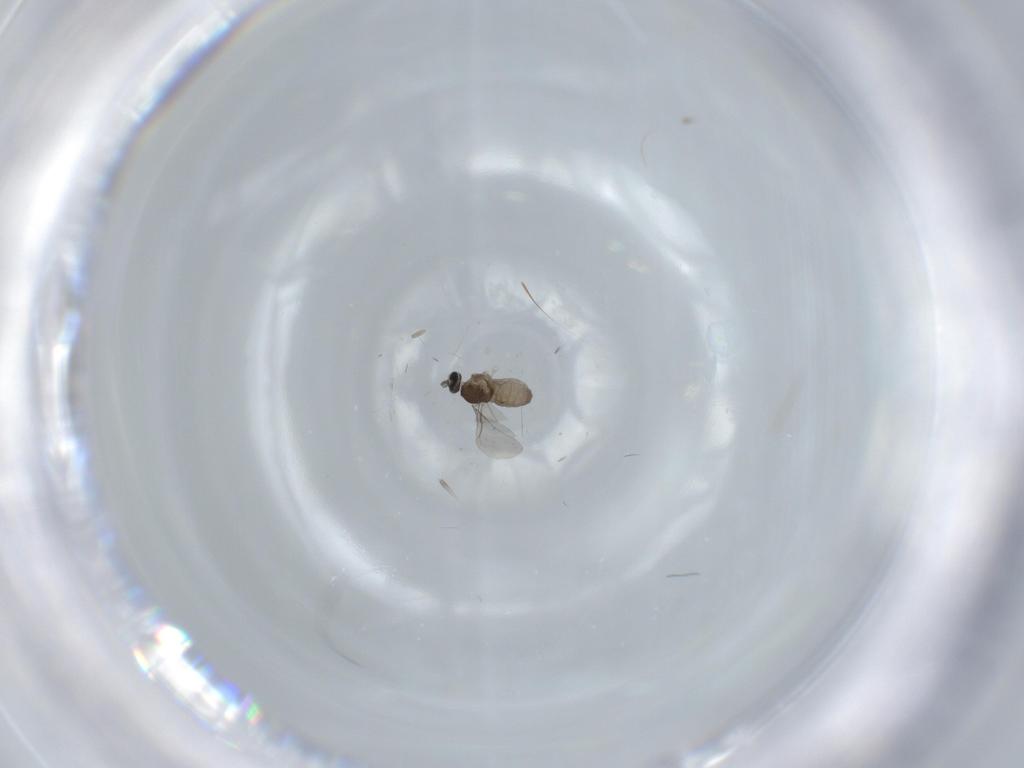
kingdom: Animalia
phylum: Arthropoda
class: Insecta
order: Diptera
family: Cecidomyiidae
